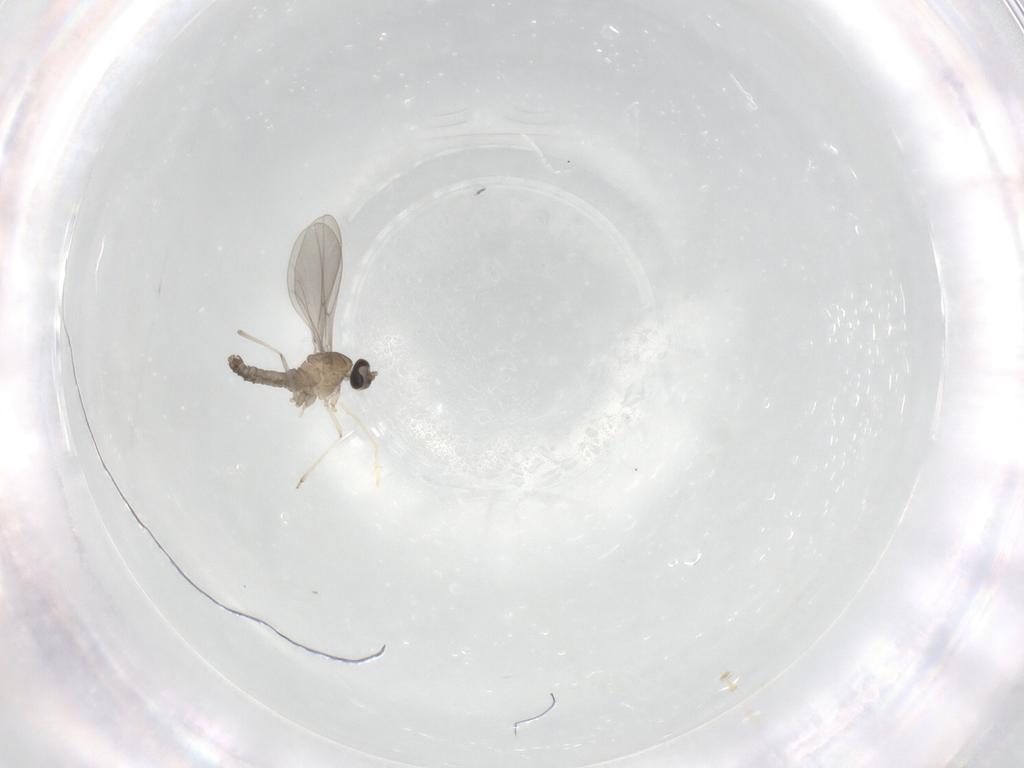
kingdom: Animalia
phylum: Arthropoda
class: Insecta
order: Diptera
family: Cecidomyiidae
